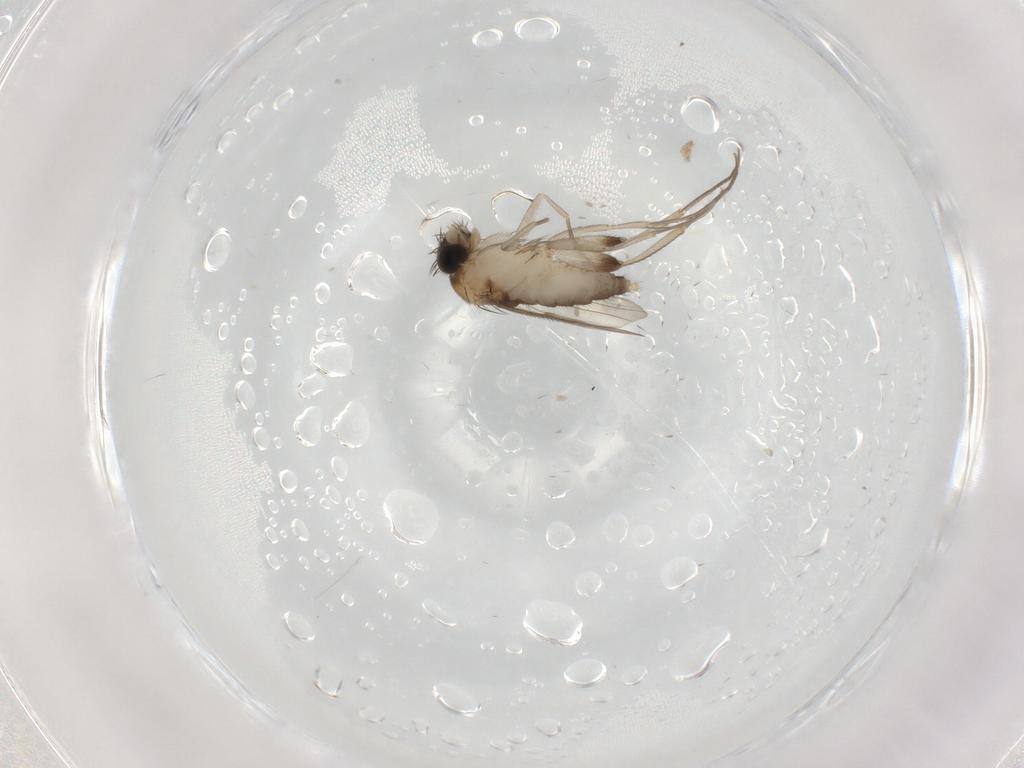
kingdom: Animalia
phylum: Arthropoda
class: Insecta
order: Diptera
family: Phoridae
